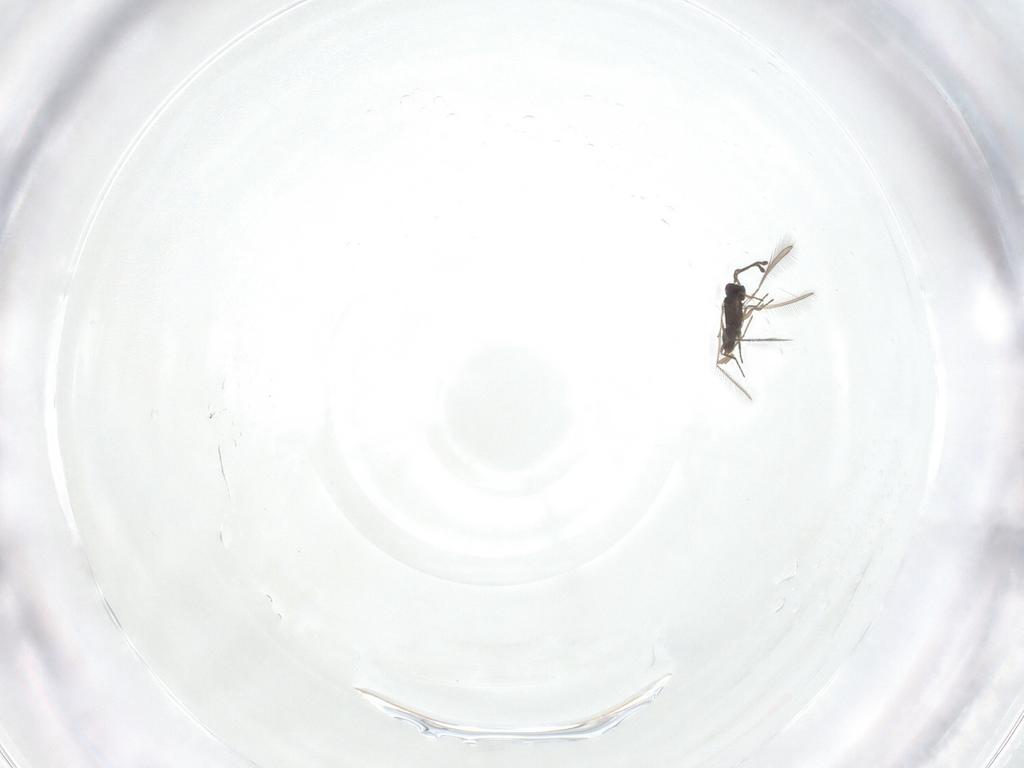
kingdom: Animalia
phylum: Arthropoda
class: Insecta
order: Hymenoptera
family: Mymaridae
